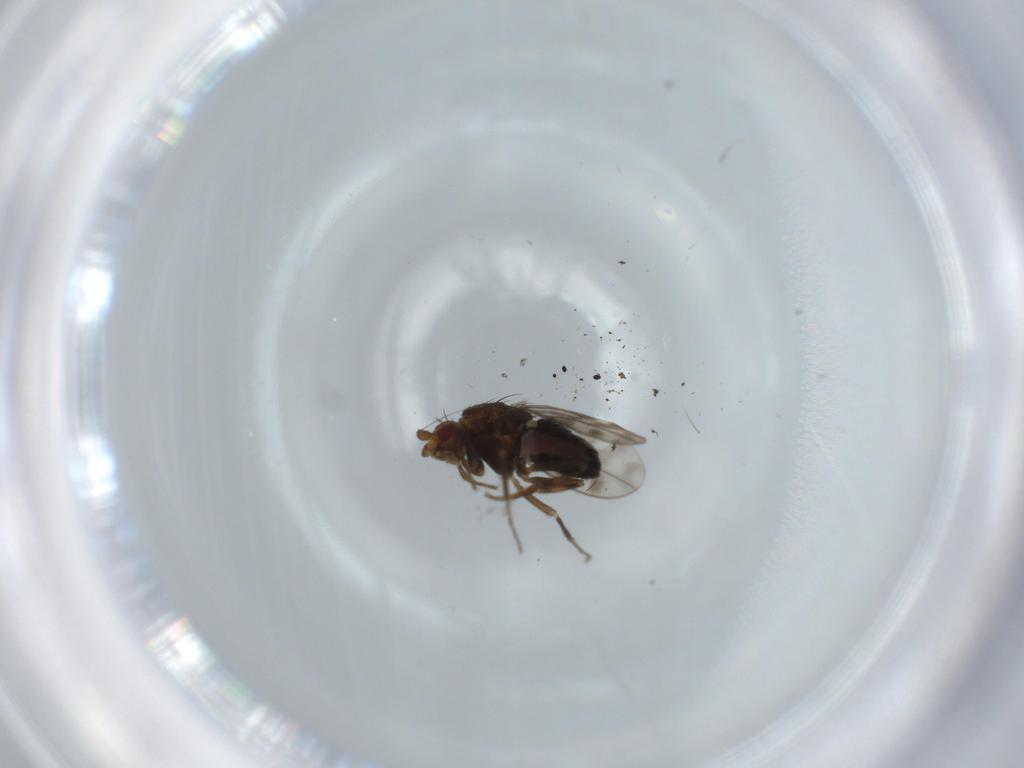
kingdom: Animalia
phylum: Arthropoda
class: Insecta
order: Diptera
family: Sphaeroceridae
